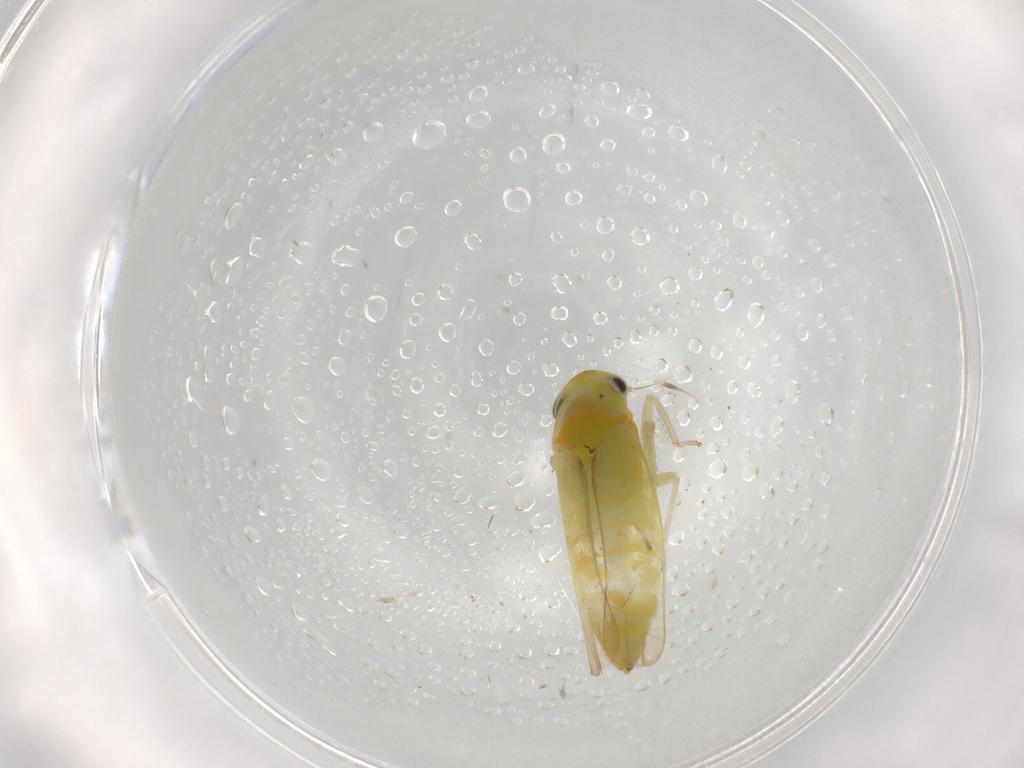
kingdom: Animalia
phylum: Arthropoda
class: Insecta
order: Hemiptera
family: Cicadellidae
